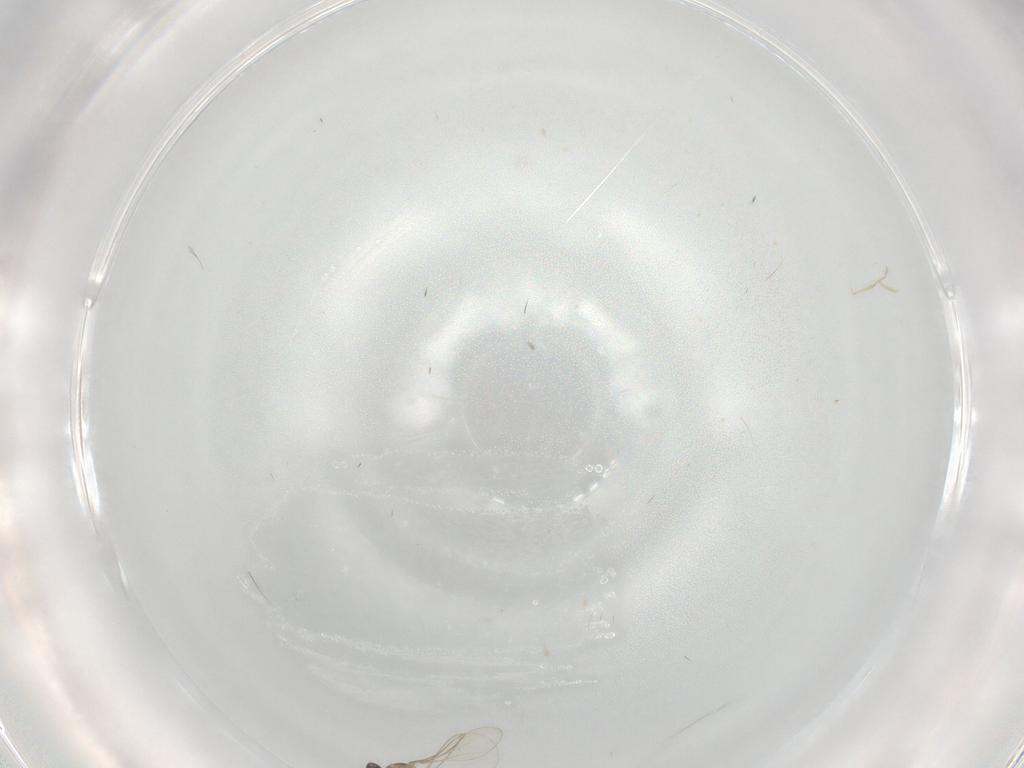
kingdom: Animalia
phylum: Arthropoda
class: Insecta
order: Diptera
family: Cecidomyiidae
